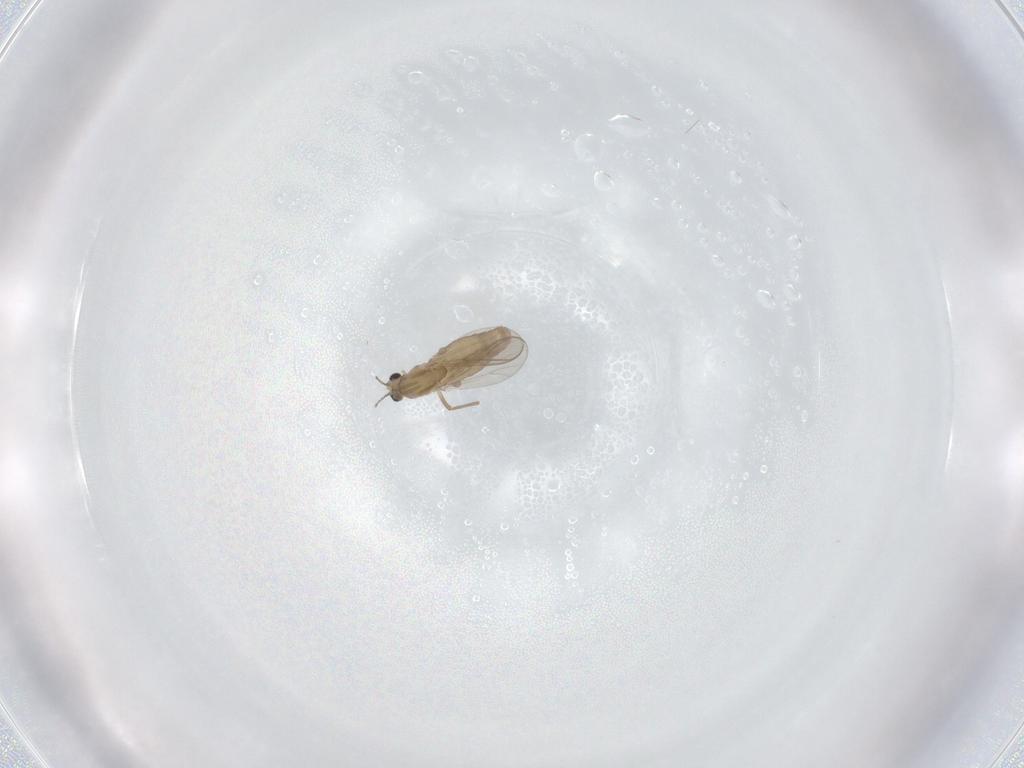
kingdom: Animalia
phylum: Arthropoda
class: Insecta
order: Diptera
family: Chironomidae
